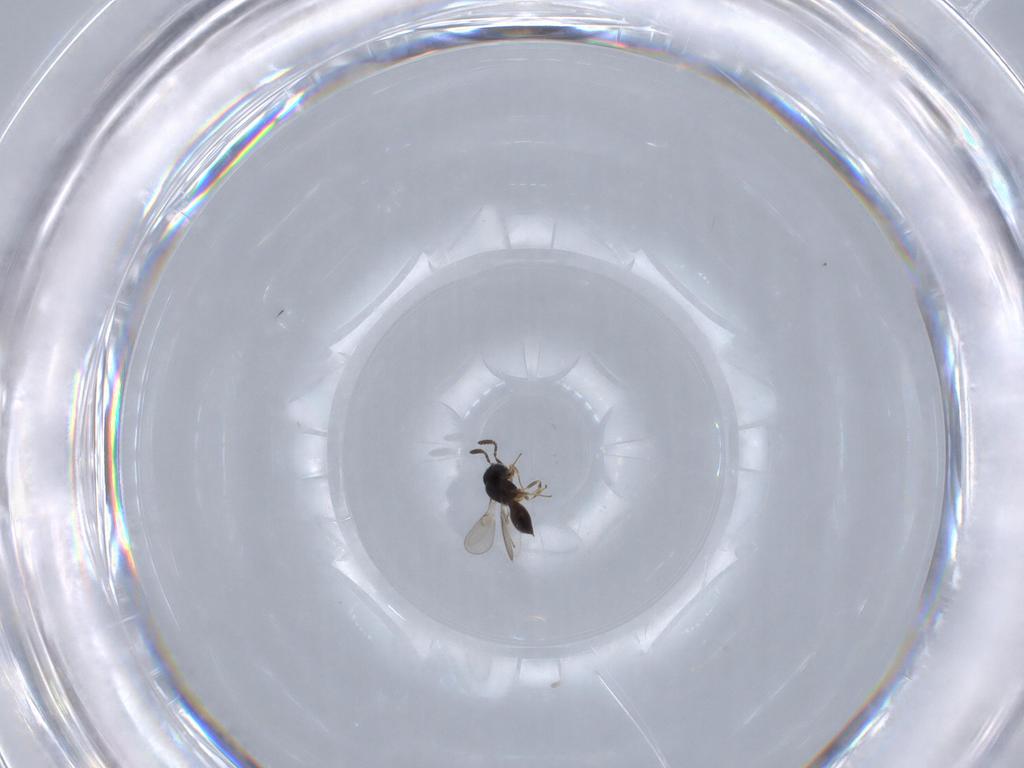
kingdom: Animalia
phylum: Arthropoda
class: Insecta
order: Hymenoptera
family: Scelionidae
